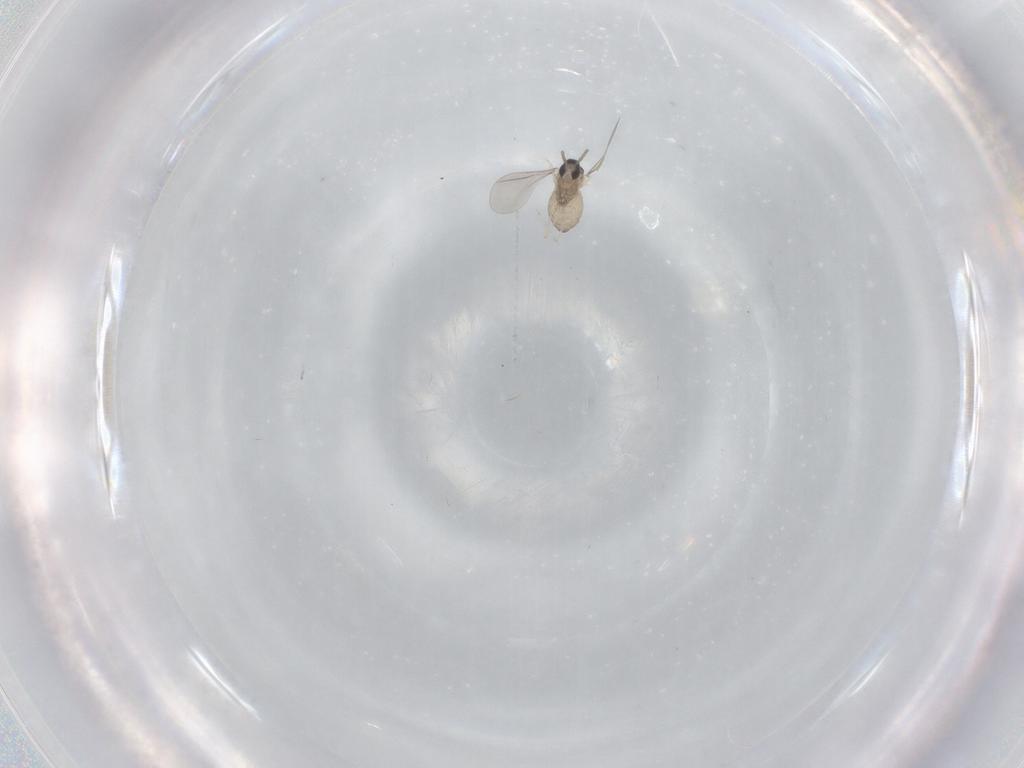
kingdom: Animalia
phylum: Arthropoda
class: Insecta
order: Diptera
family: Cecidomyiidae
